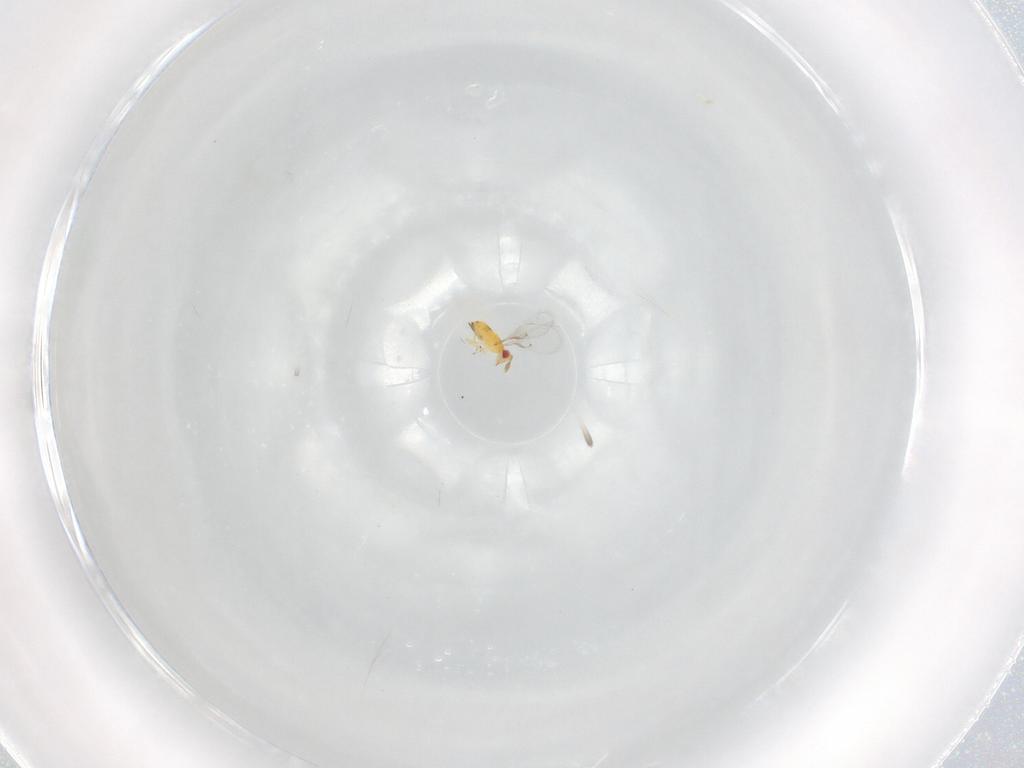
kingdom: Animalia
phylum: Arthropoda
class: Insecta
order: Hymenoptera
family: Trichogrammatidae
